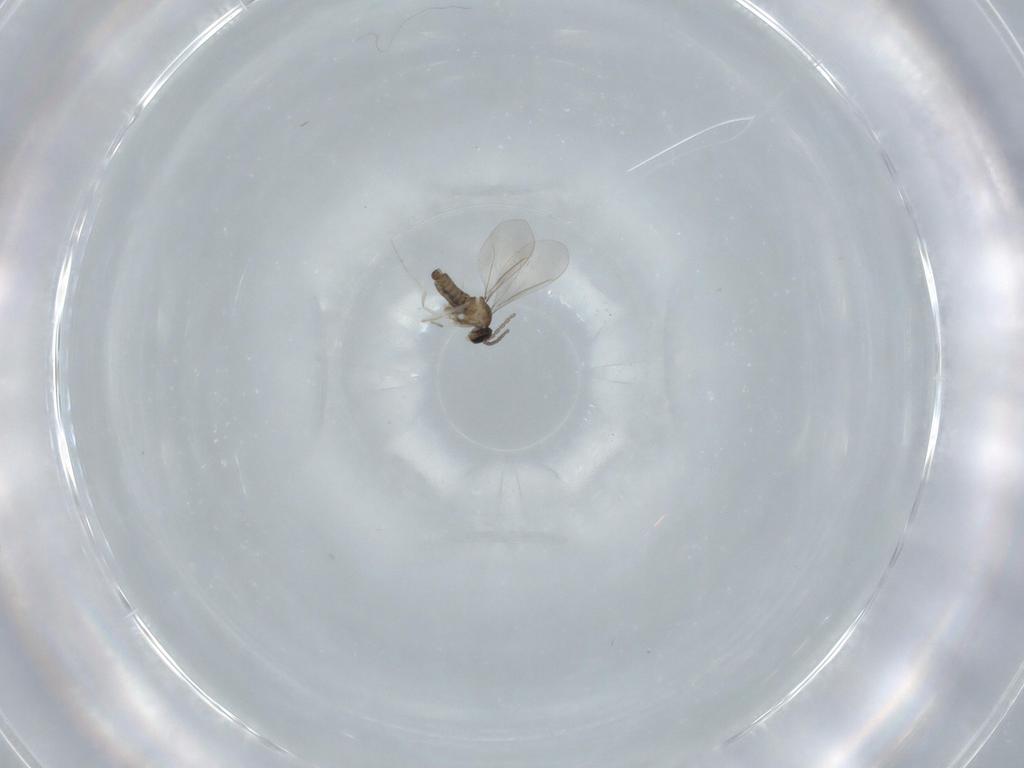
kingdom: Animalia
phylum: Arthropoda
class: Insecta
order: Diptera
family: Cecidomyiidae
